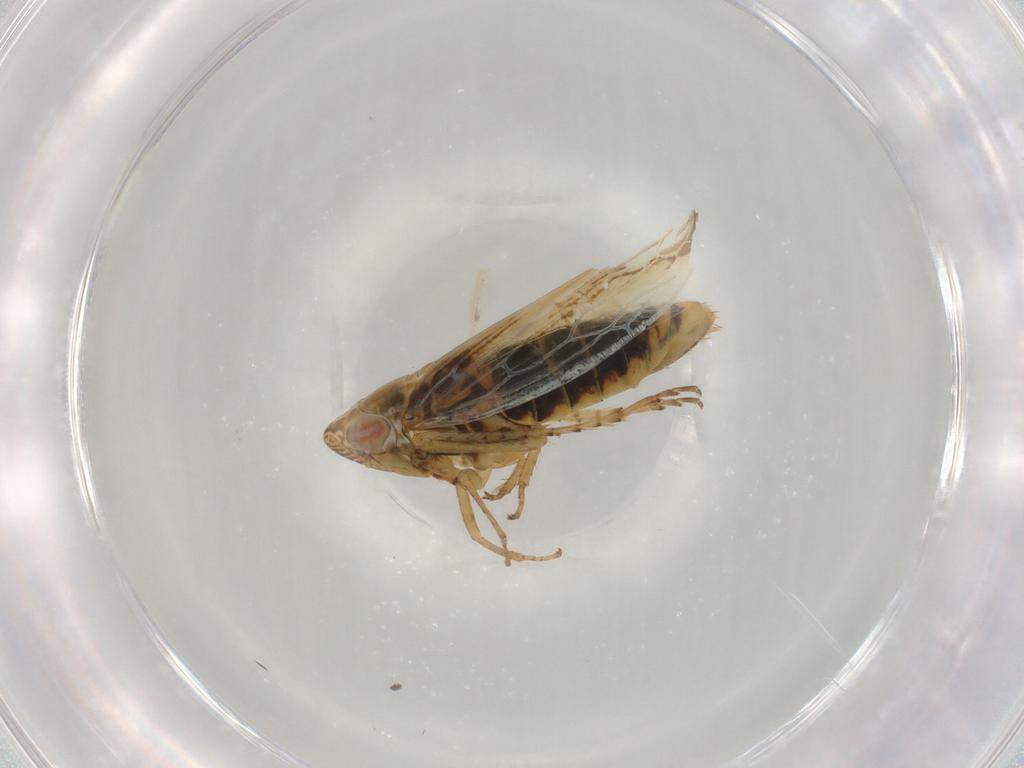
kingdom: Animalia
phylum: Arthropoda
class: Insecta
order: Hemiptera
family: Cicadellidae
